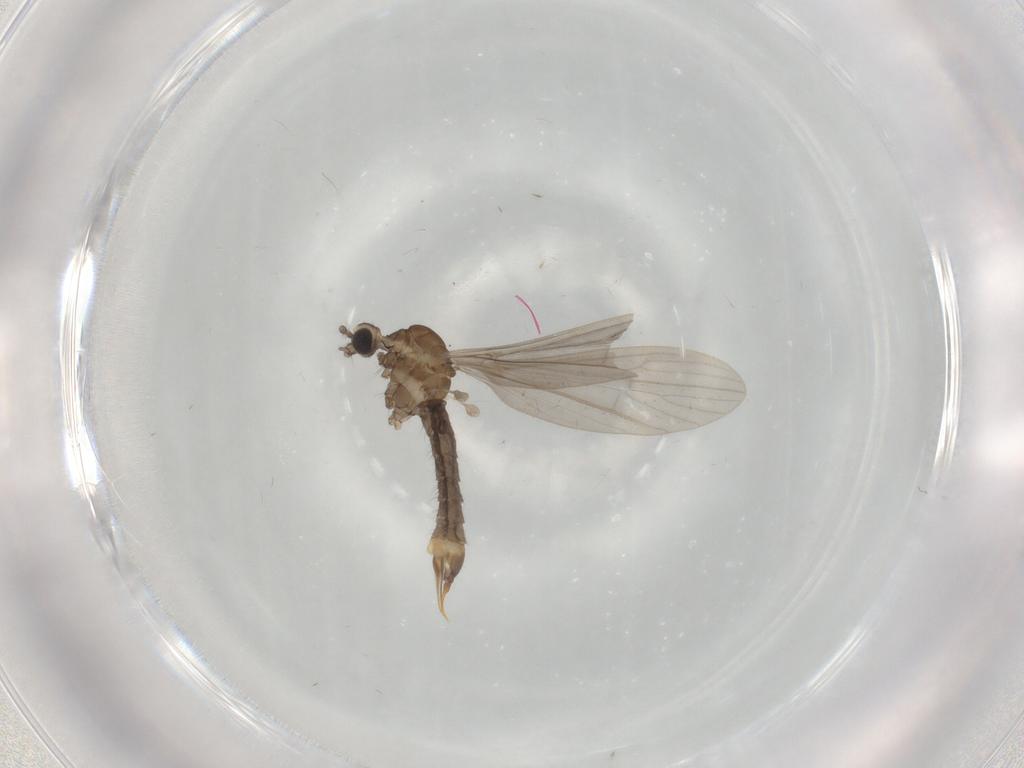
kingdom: Animalia
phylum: Arthropoda
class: Insecta
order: Diptera
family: Limoniidae
